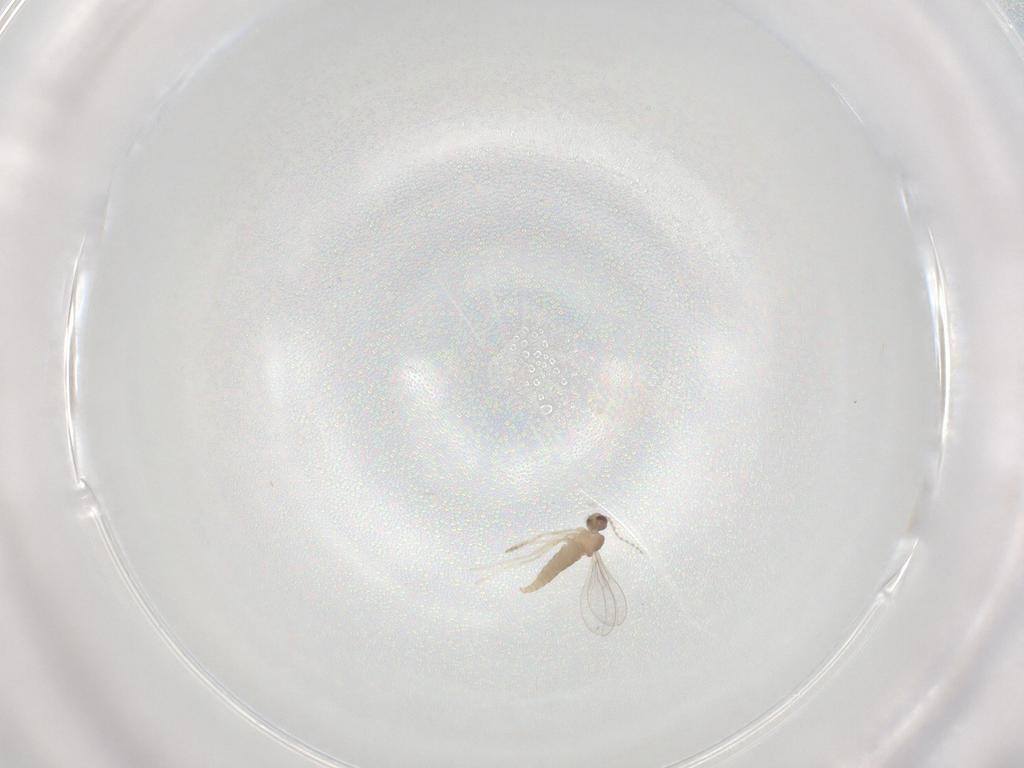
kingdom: Animalia
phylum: Arthropoda
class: Insecta
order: Diptera
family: Cecidomyiidae
